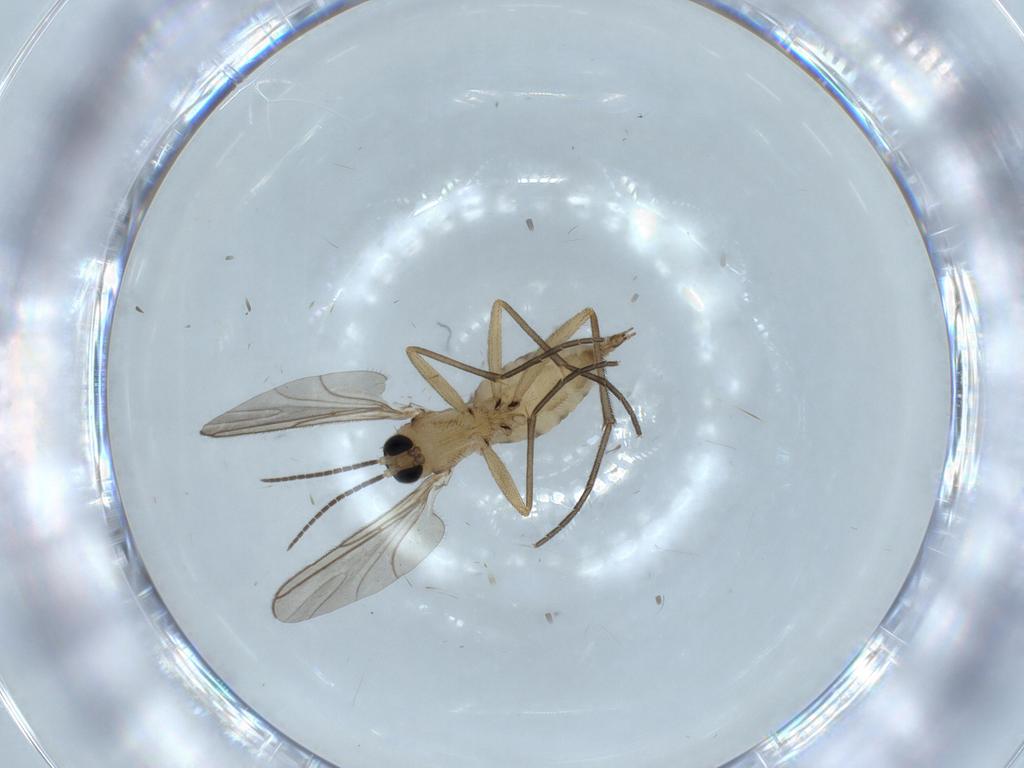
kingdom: Animalia
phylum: Arthropoda
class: Insecta
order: Diptera
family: Sciaridae
